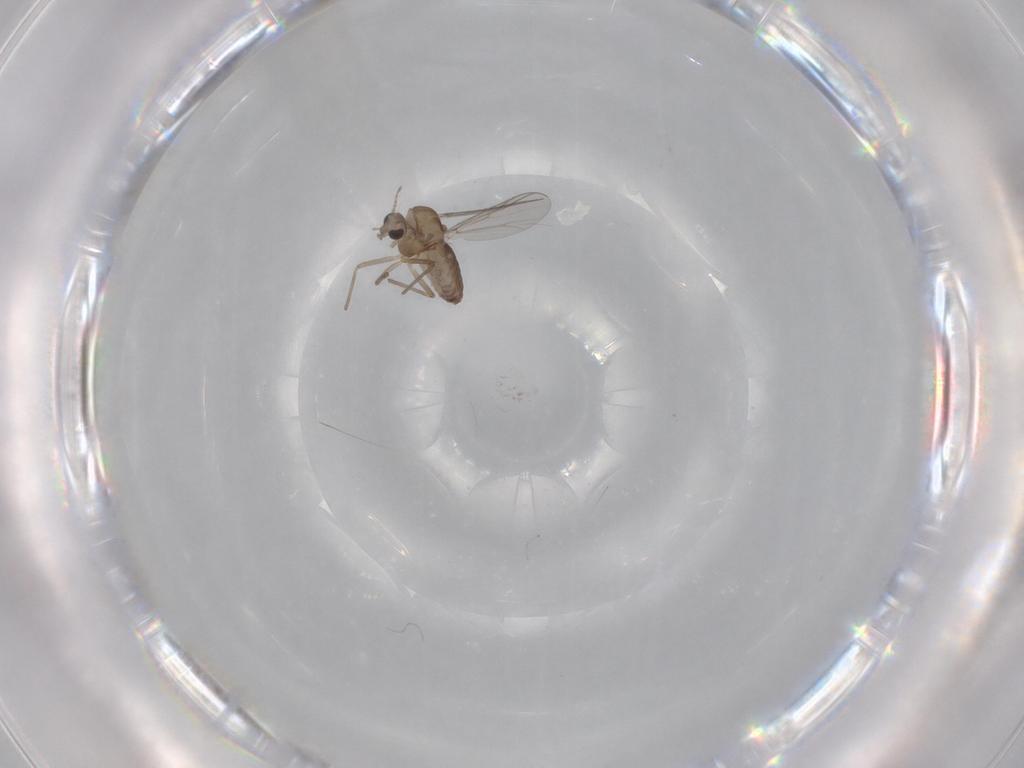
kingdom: Animalia
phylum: Arthropoda
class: Insecta
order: Diptera
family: Chironomidae
